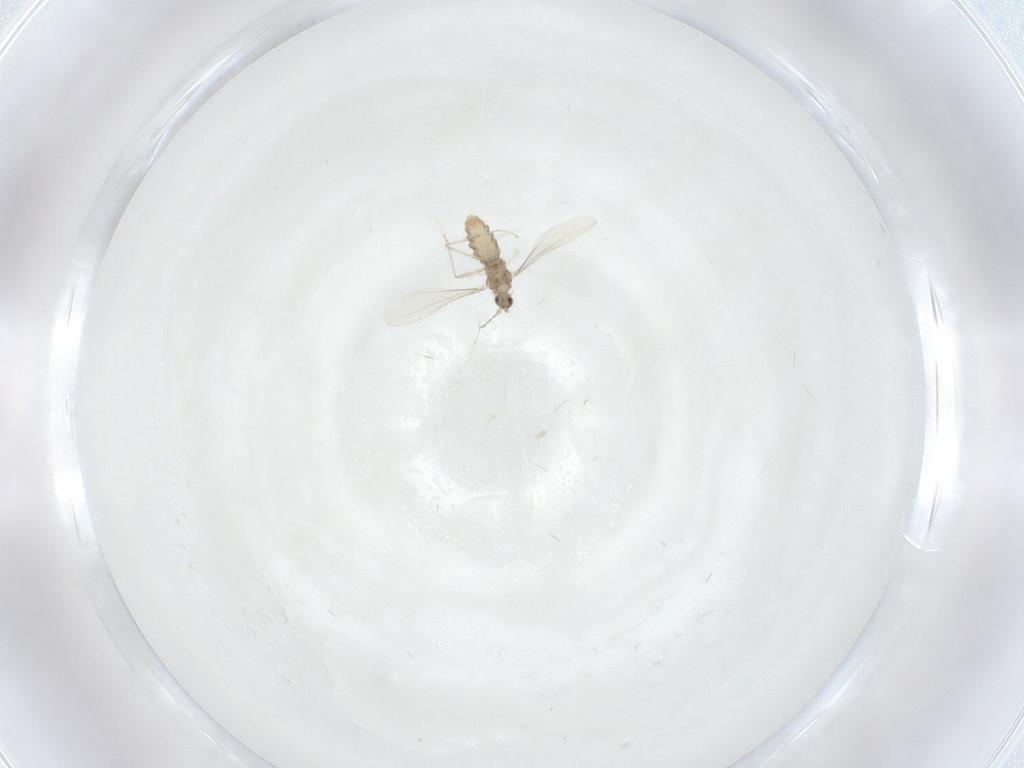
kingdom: Animalia
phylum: Arthropoda
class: Insecta
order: Diptera
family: Cecidomyiidae
